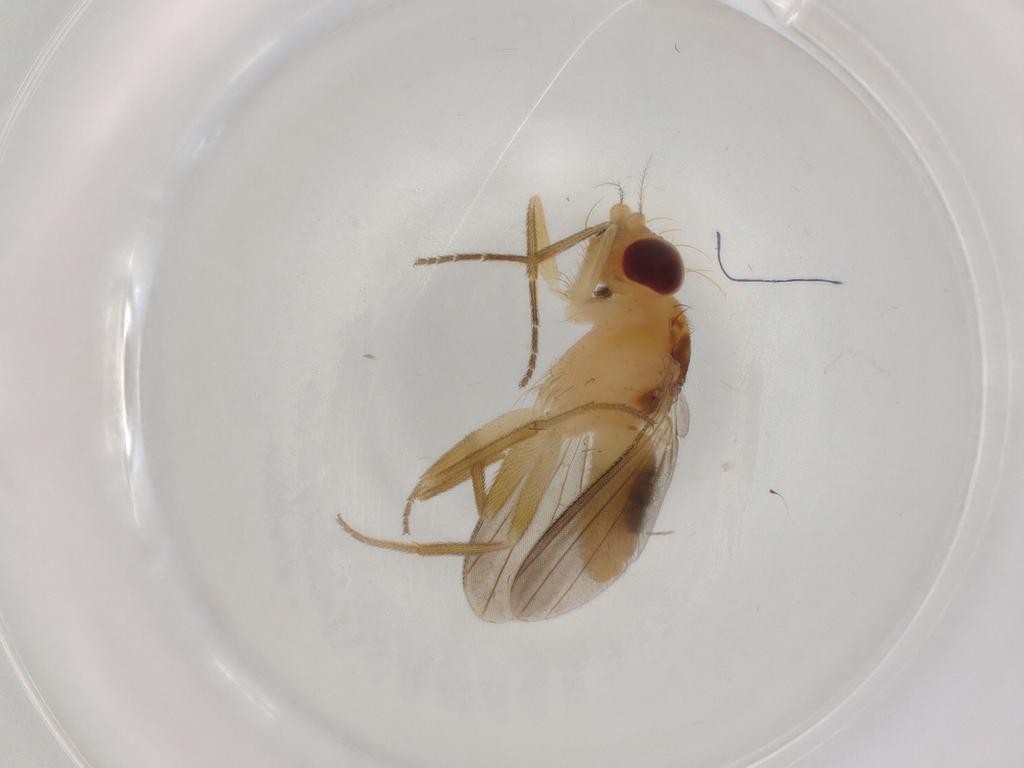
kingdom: Animalia
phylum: Arthropoda
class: Insecta
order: Diptera
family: Agromyzidae
